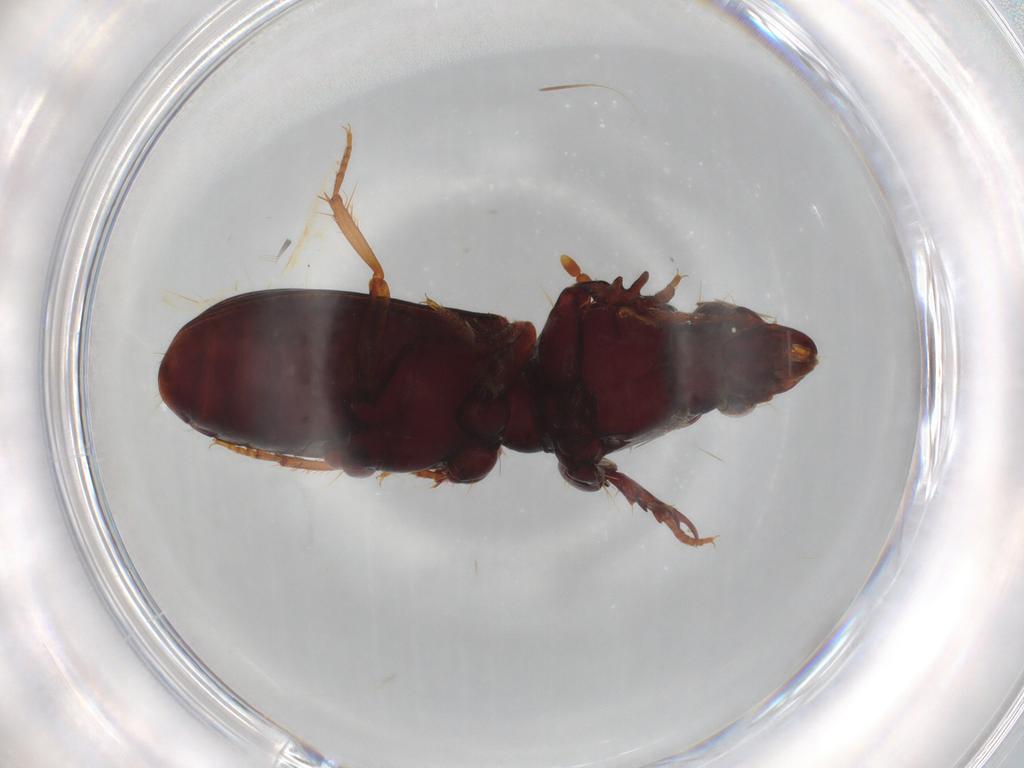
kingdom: Animalia
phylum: Arthropoda
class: Insecta
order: Coleoptera
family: Carabidae
